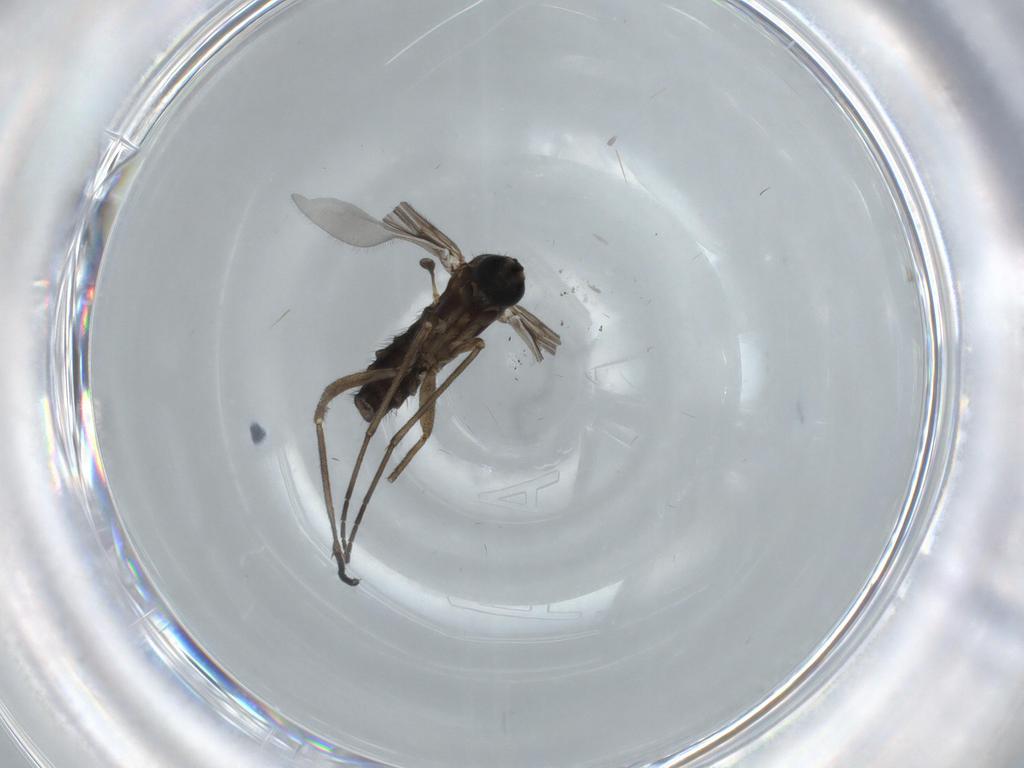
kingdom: Animalia
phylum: Arthropoda
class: Insecta
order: Diptera
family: Sciaridae
